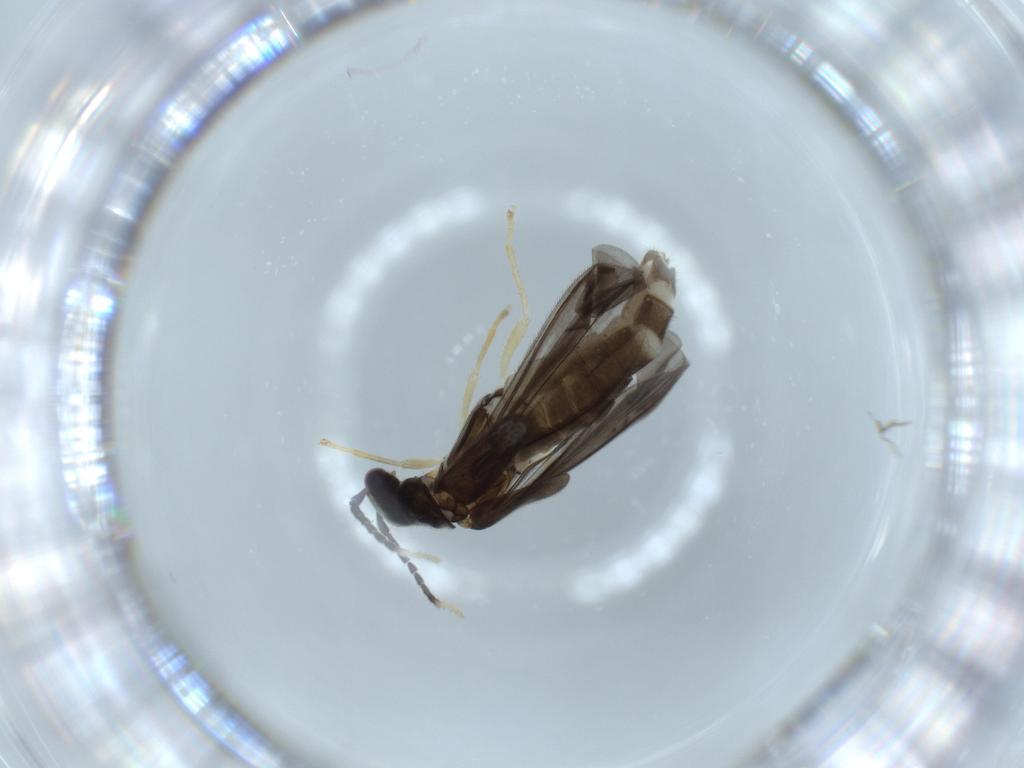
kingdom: Animalia
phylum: Arthropoda
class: Insecta
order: Coleoptera
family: Cantharidae
